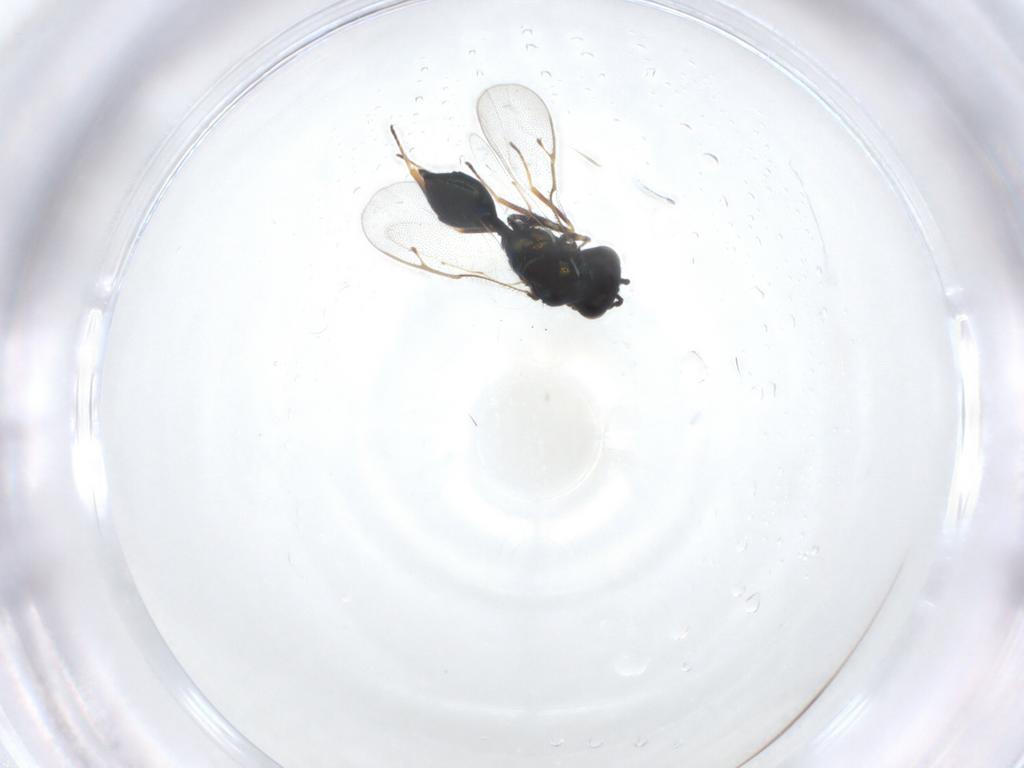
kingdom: Animalia
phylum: Arthropoda
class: Insecta
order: Hymenoptera
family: Pteromalidae
